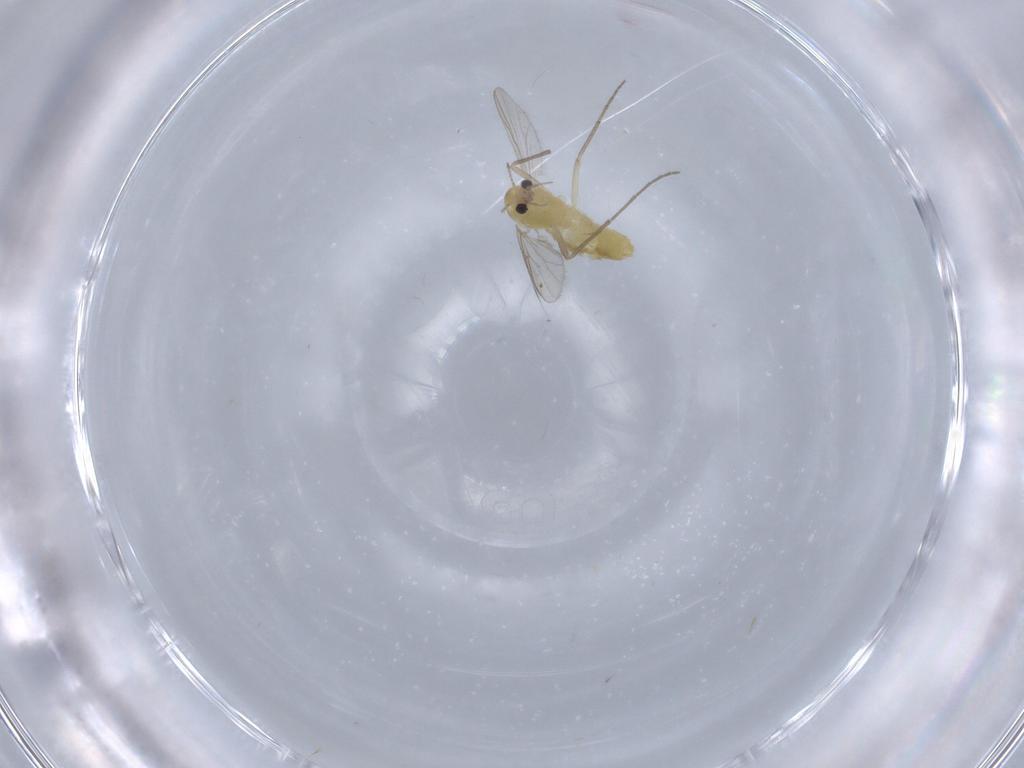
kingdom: Animalia
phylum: Arthropoda
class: Insecta
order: Diptera
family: Chironomidae
